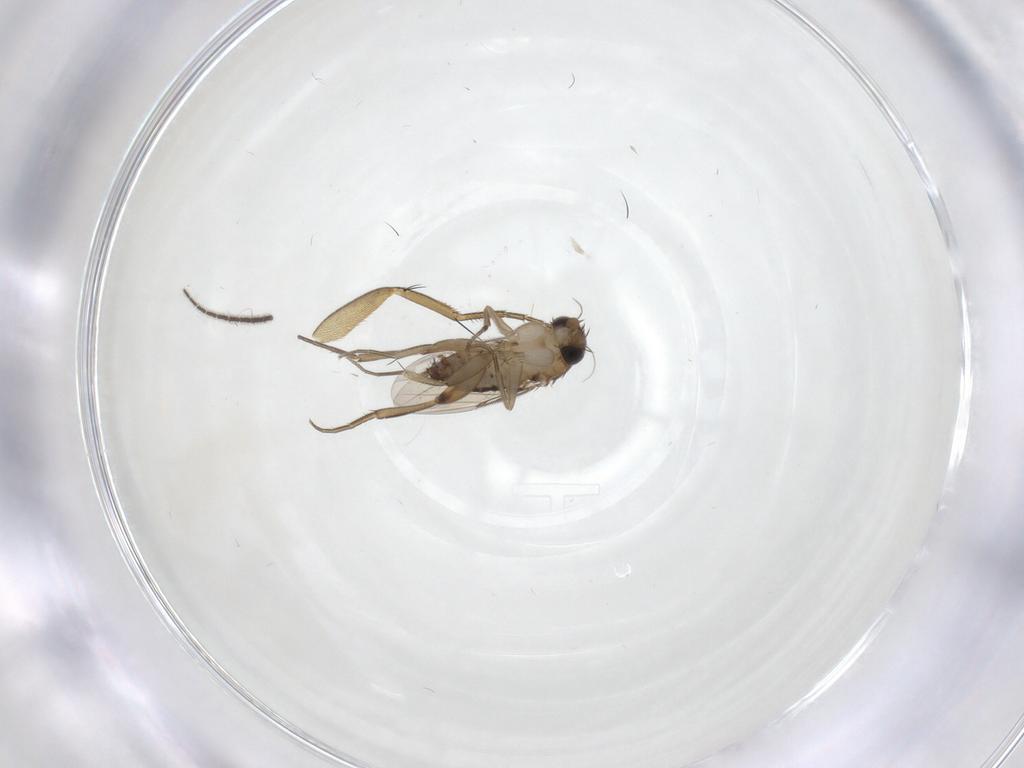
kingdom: Animalia
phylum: Arthropoda
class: Insecta
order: Diptera
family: Phoridae
